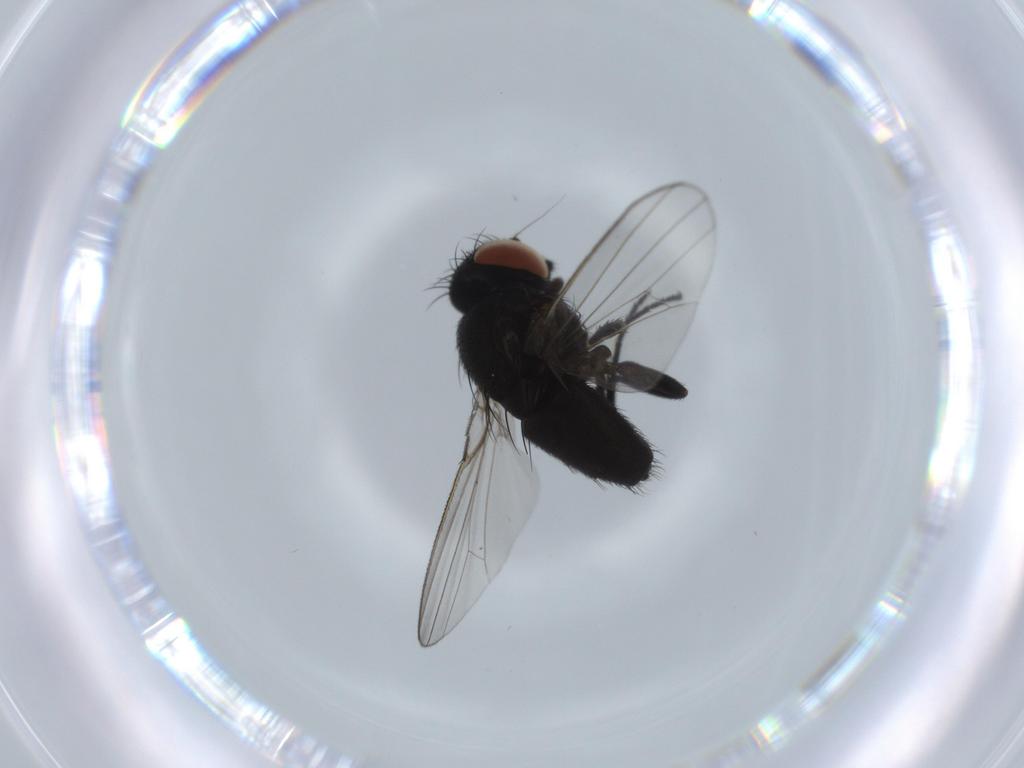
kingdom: Animalia
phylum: Arthropoda
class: Insecta
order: Diptera
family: Milichiidae
